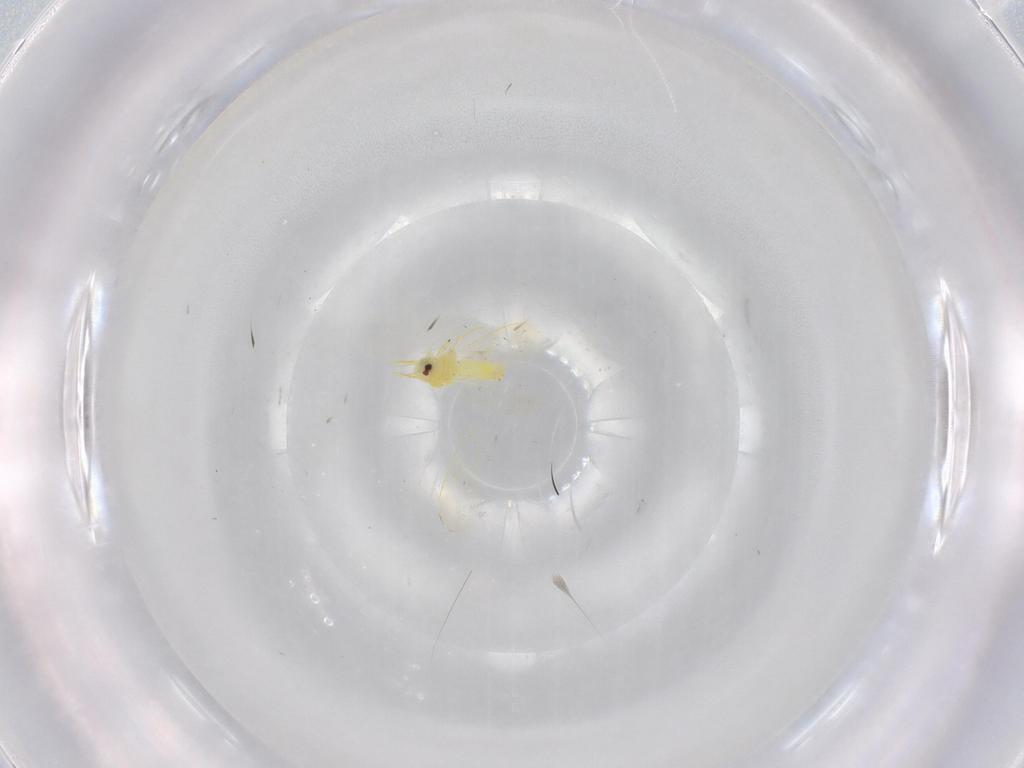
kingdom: Animalia
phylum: Arthropoda
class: Insecta
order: Hemiptera
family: Aleyrodidae
